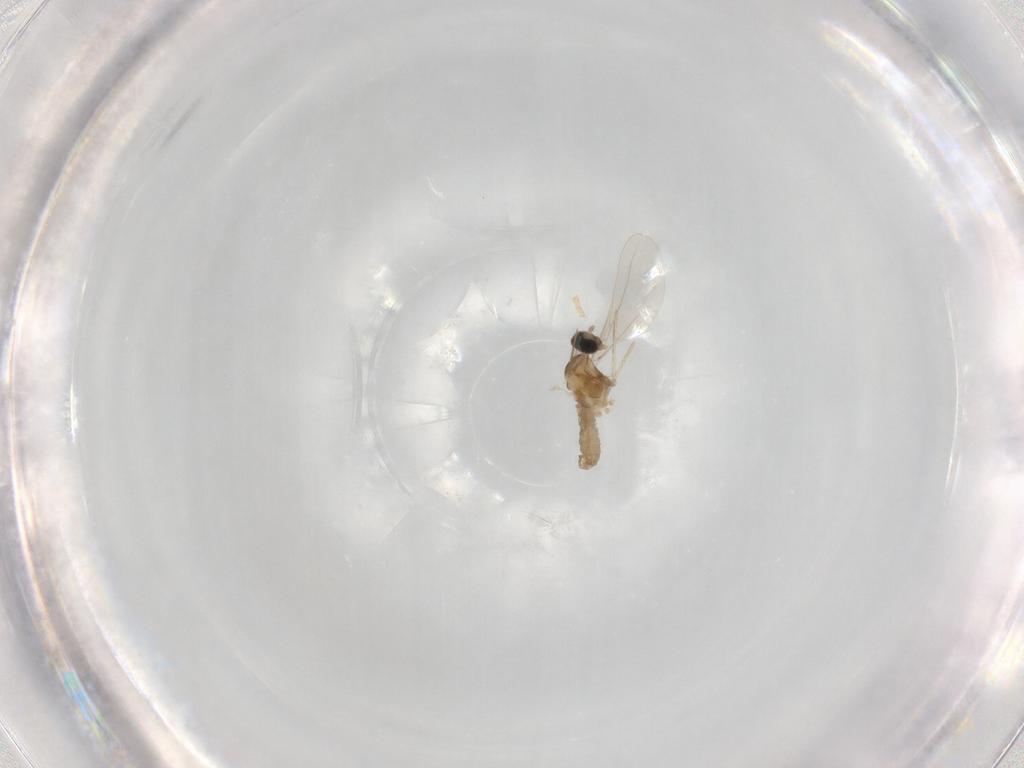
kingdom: Animalia
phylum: Arthropoda
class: Insecta
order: Diptera
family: Cecidomyiidae
